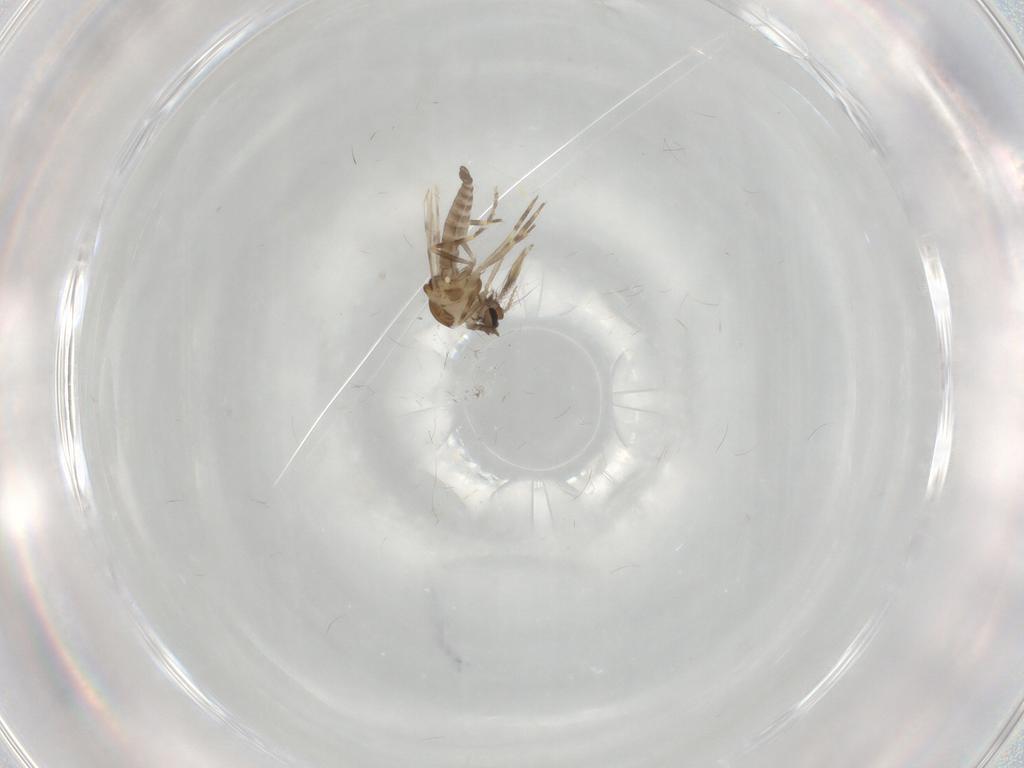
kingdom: Animalia
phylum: Arthropoda
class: Insecta
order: Diptera
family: Ceratopogonidae
